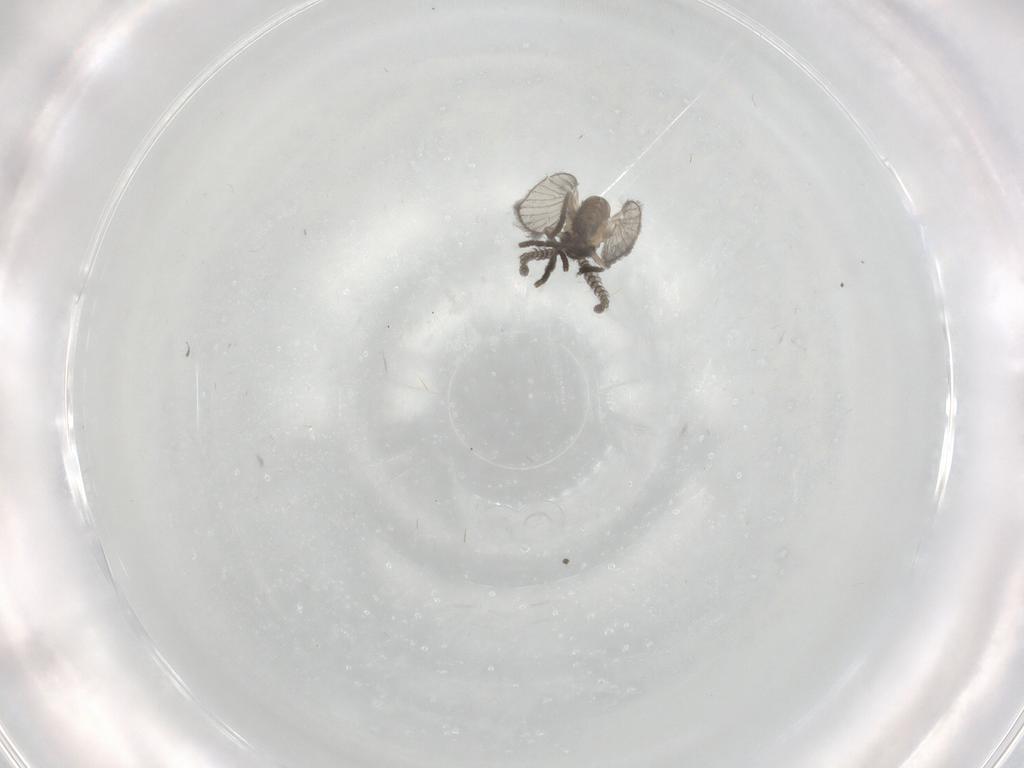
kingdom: Animalia
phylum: Arthropoda
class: Insecta
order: Diptera
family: Psychodidae
